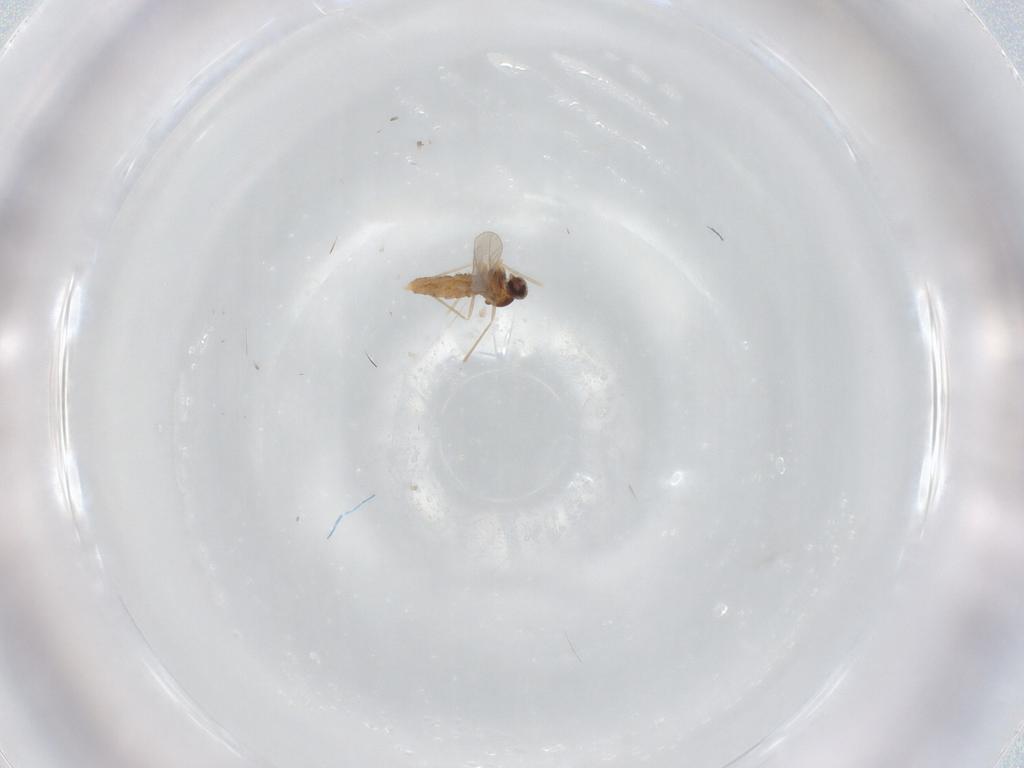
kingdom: Animalia
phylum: Arthropoda
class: Insecta
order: Diptera
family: Cecidomyiidae
